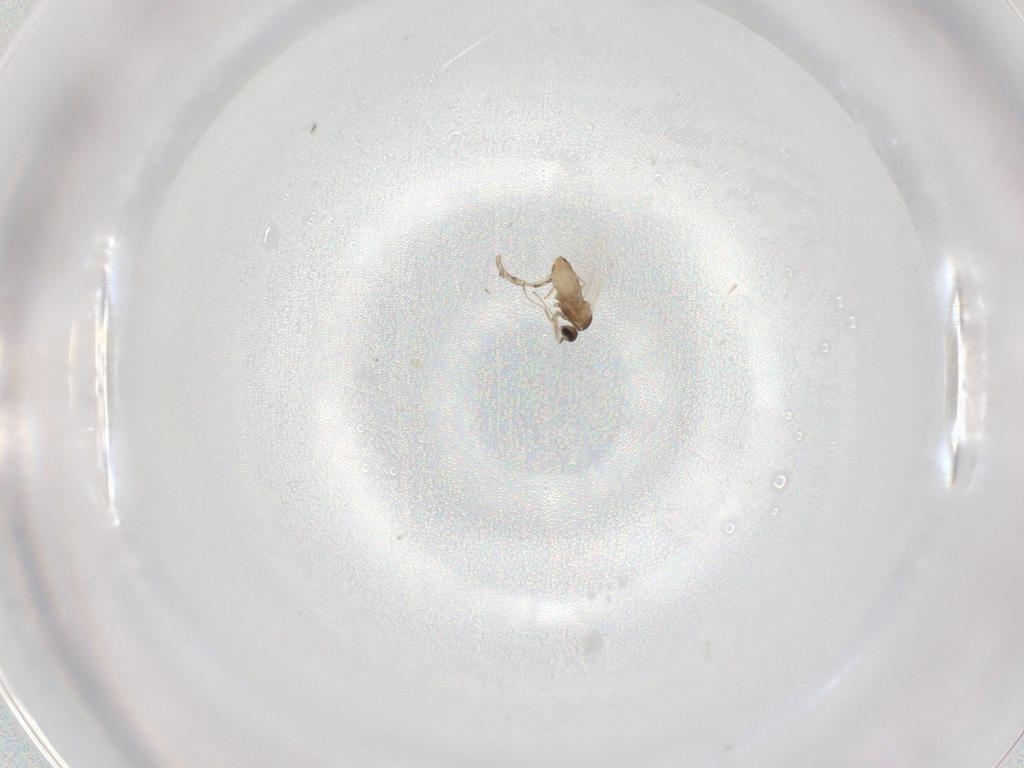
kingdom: Animalia
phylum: Arthropoda
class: Insecta
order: Diptera
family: Cecidomyiidae
